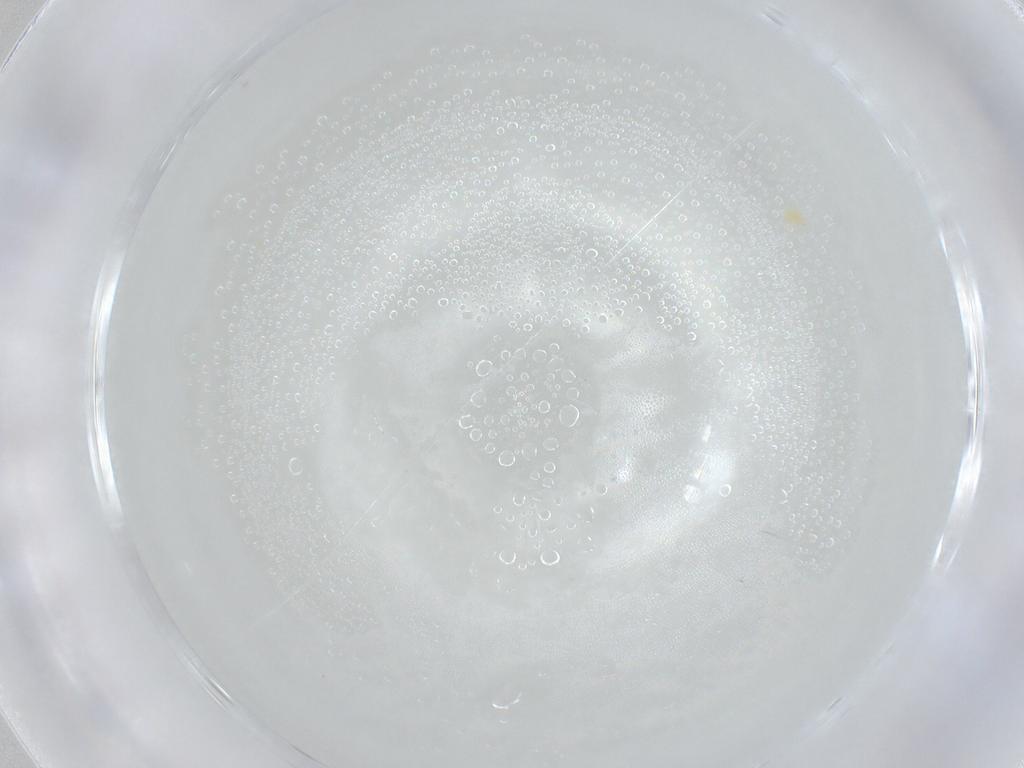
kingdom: Animalia
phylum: Arthropoda
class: Arachnida
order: Trombidiformes
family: Tetranychidae
